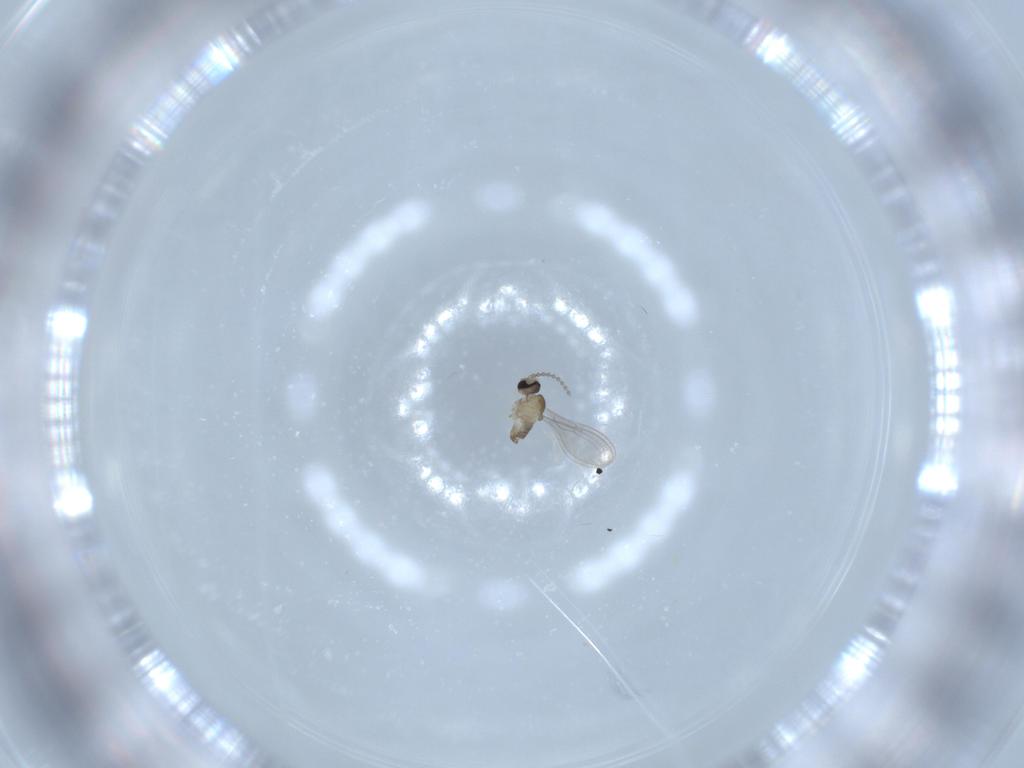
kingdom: Animalia
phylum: Arthropoda
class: Insecta
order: Diptera
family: Cecidomyiidae
